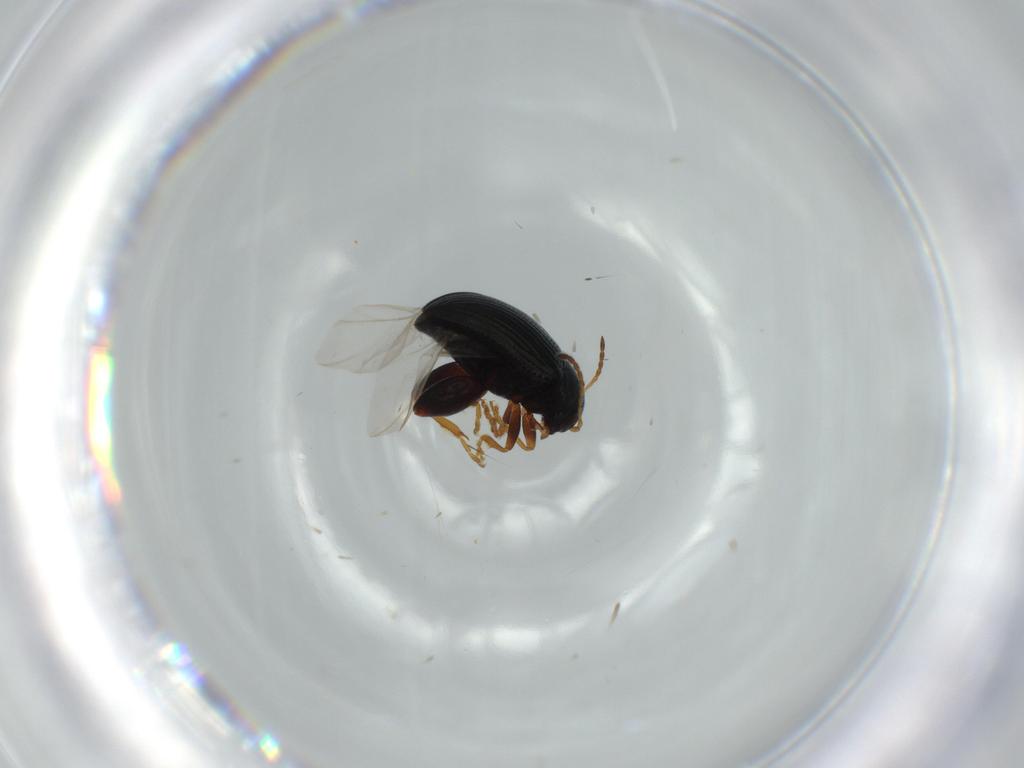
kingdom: Animalia
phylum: Arthropoda
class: Insecta
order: Coleoptera
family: Chrysomelidae
